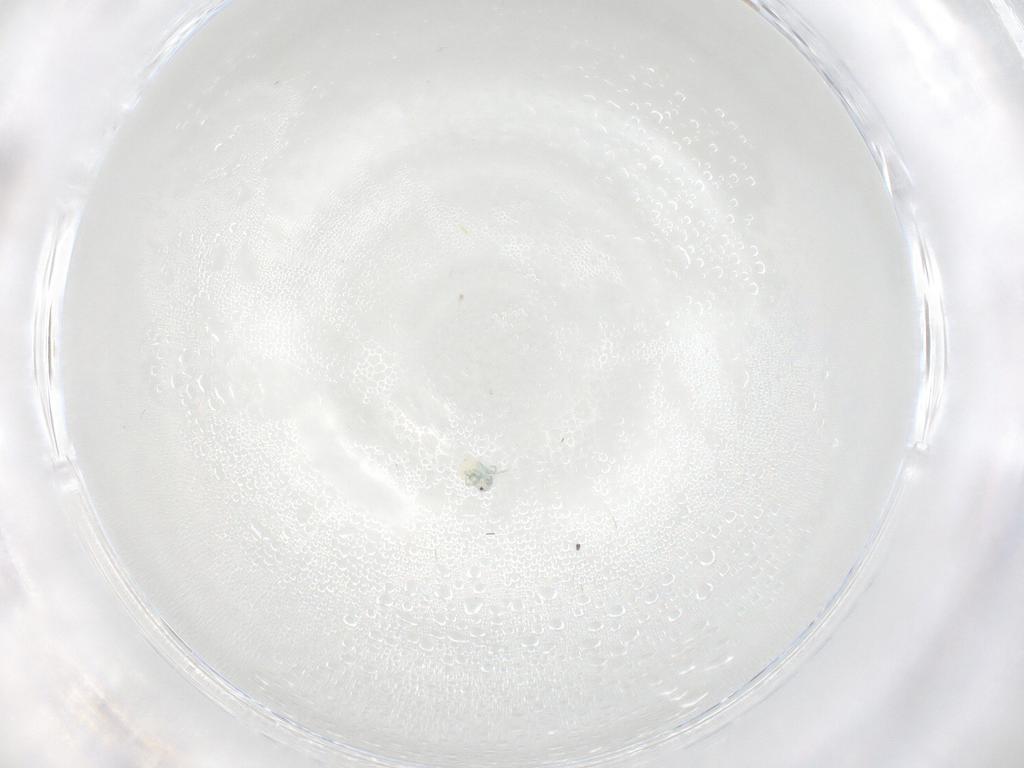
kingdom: Animalia
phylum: Arthropoda
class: Arachnida
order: Trombidiformes
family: Arrenuridae
